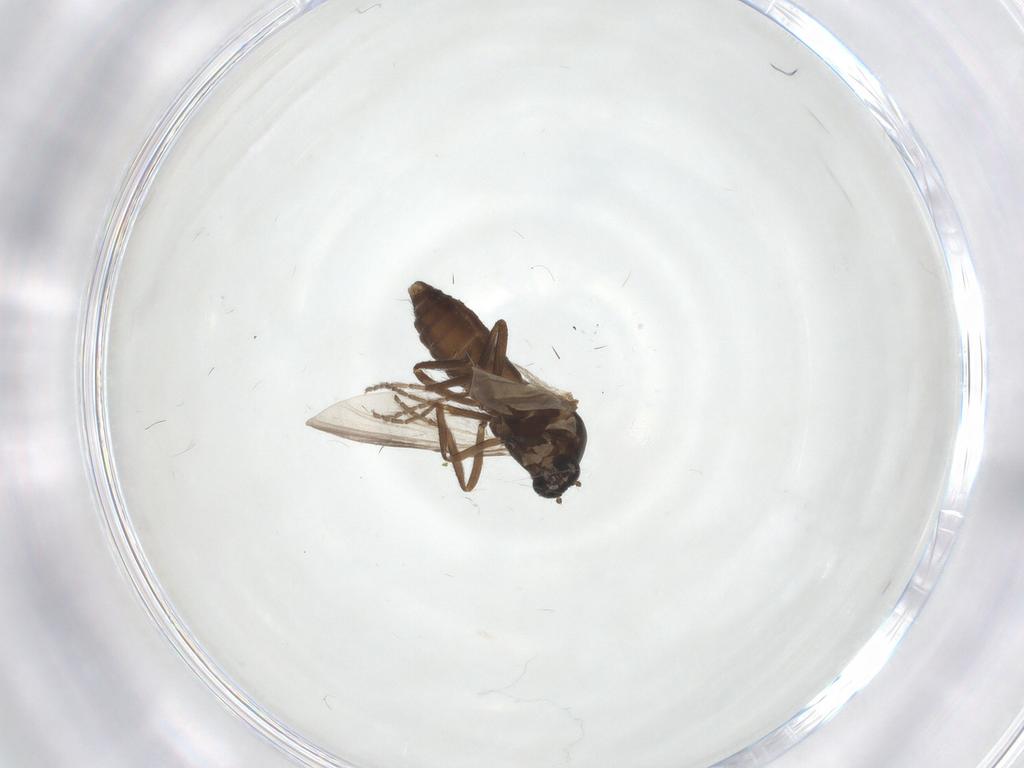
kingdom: Animalia
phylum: Arthropoda
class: Insecta
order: Diptera
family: Ceratopogonidae
